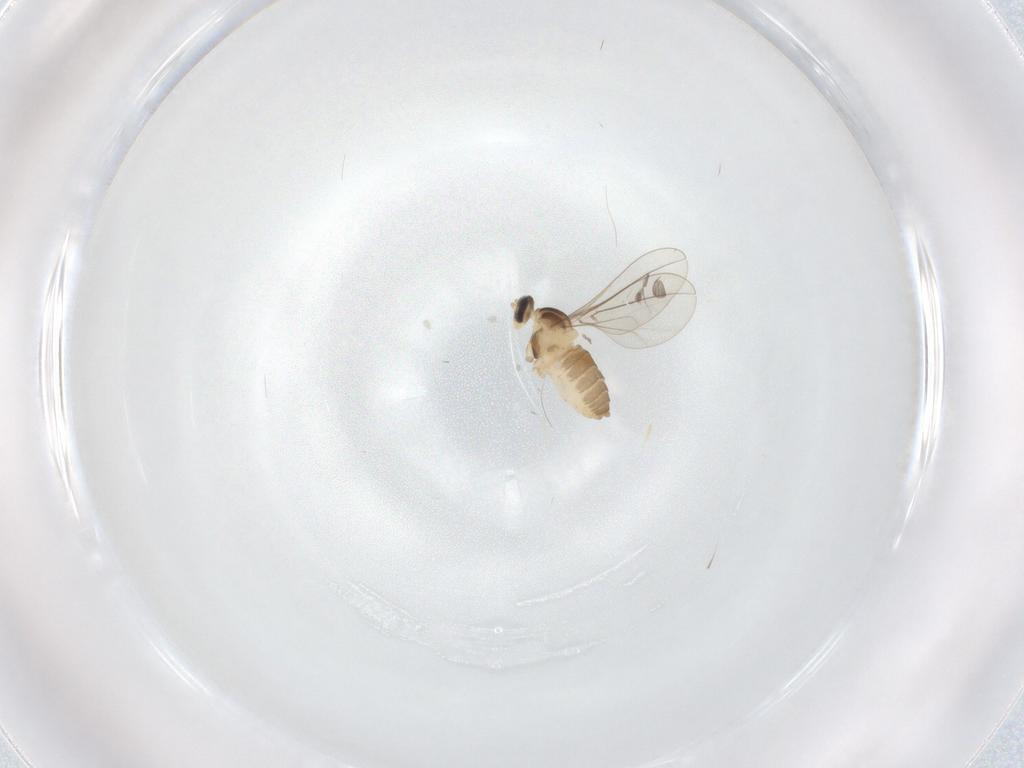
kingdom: Animalia
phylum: Arthropoda
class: Insecta
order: Diptera
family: Cecidomyiidae
